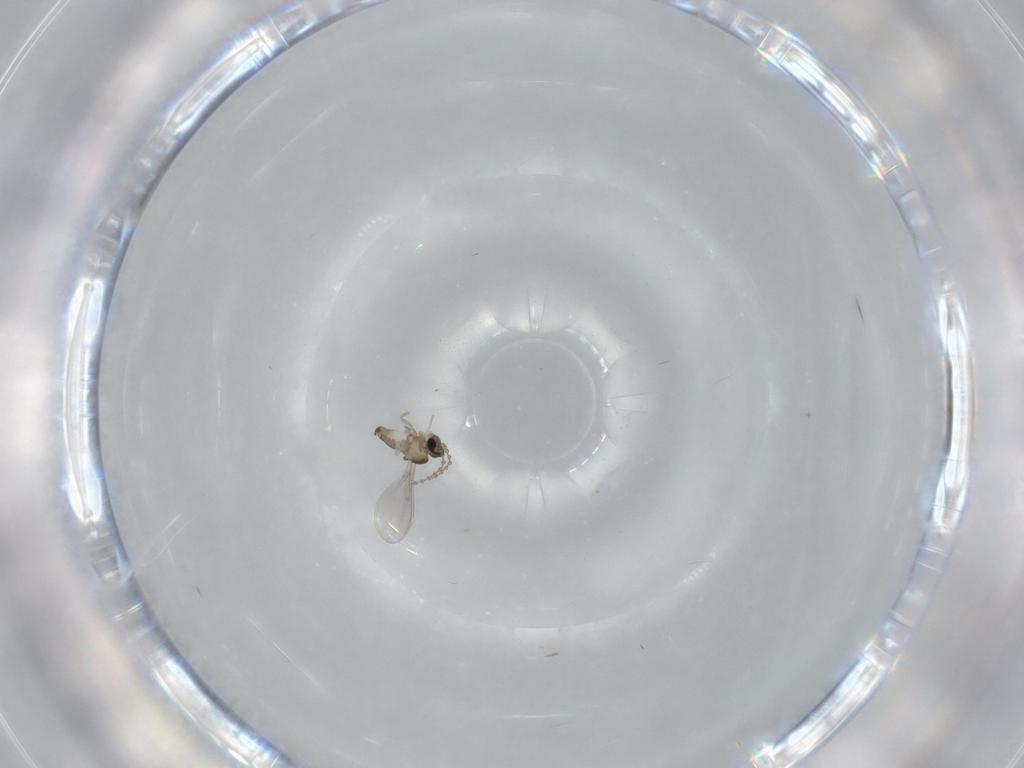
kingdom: Animalia
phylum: Arthropoda
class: Insecta
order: Diptera
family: Cecidomyiidae
